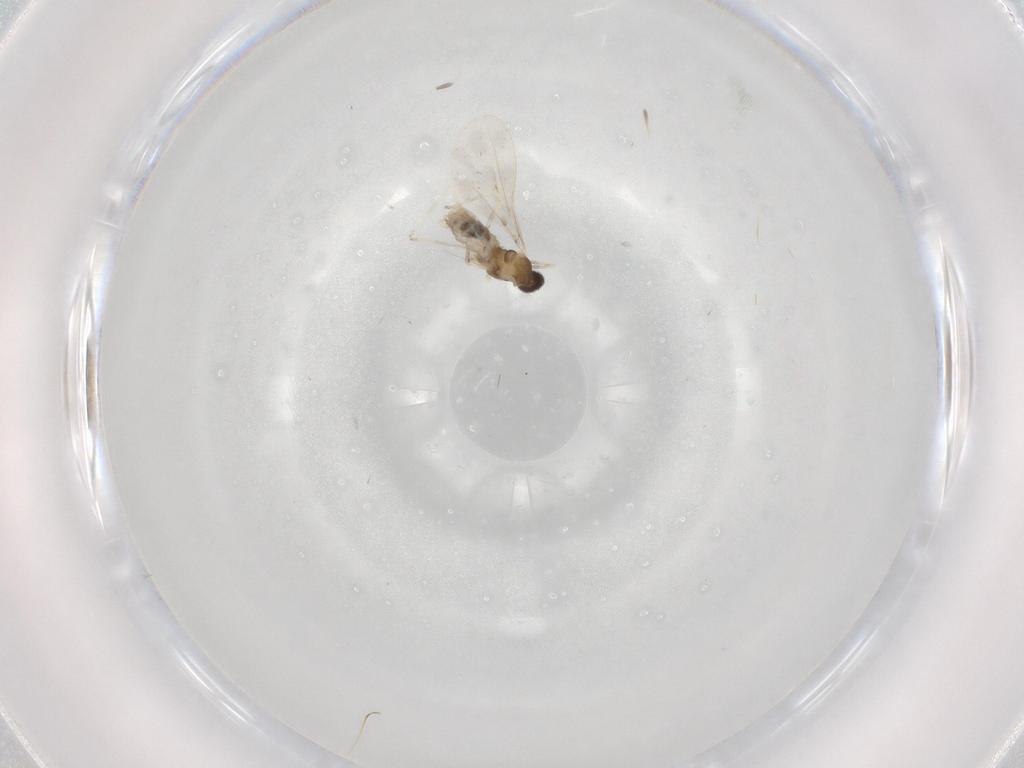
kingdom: Animalia
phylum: Arthropoda
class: Insecta
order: Diptera
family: Cecidomyiidae
